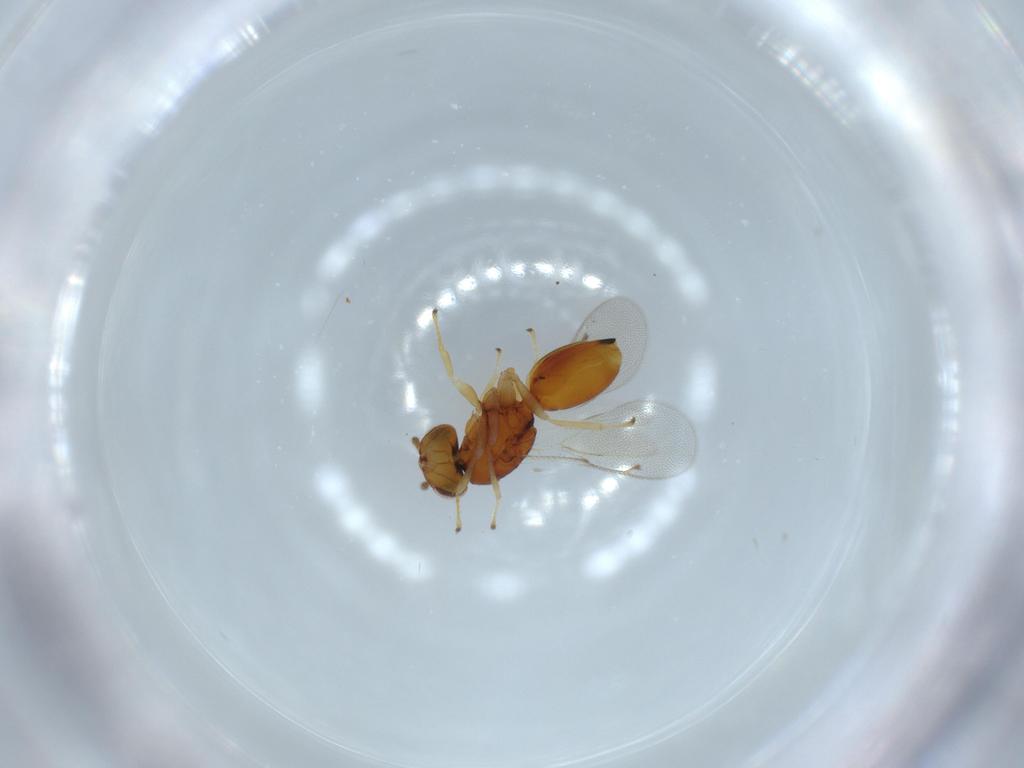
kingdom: Animalia
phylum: Arthropoda
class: Insecta
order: Hymenoptera
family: Eurytomidae
